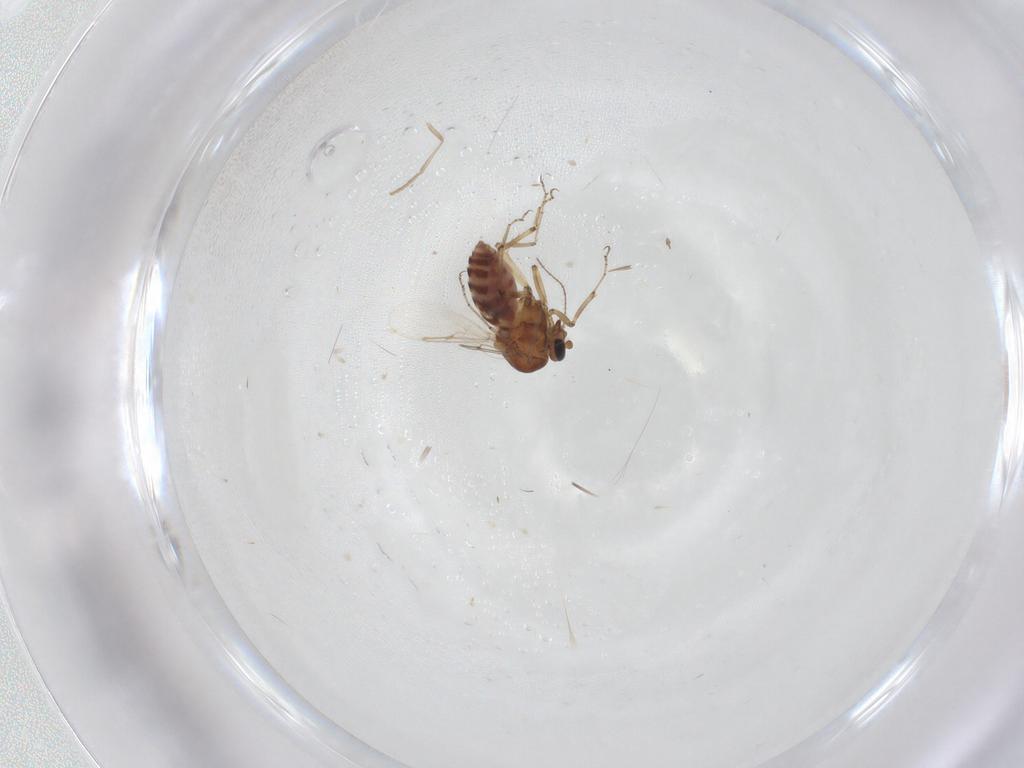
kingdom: Animalia
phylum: Arthropoda
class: Insecta
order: Diptera
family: Ceratopogonidae
